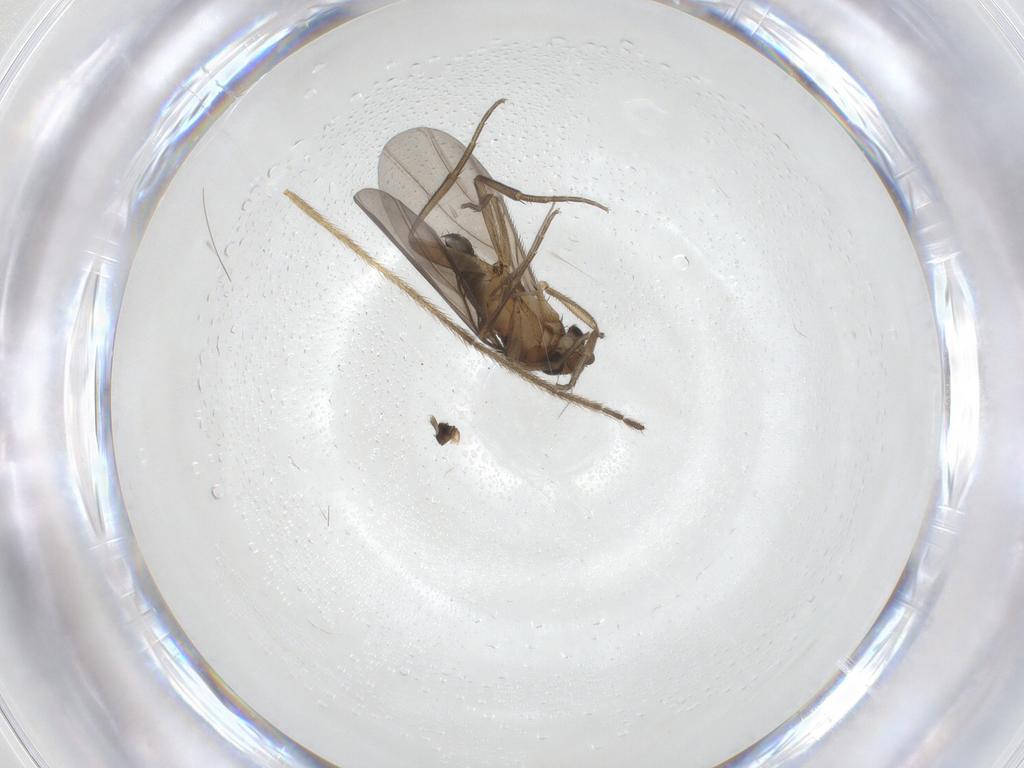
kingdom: Animalia
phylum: Arthropoda
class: Insecta
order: Diptera
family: Limoniidae
